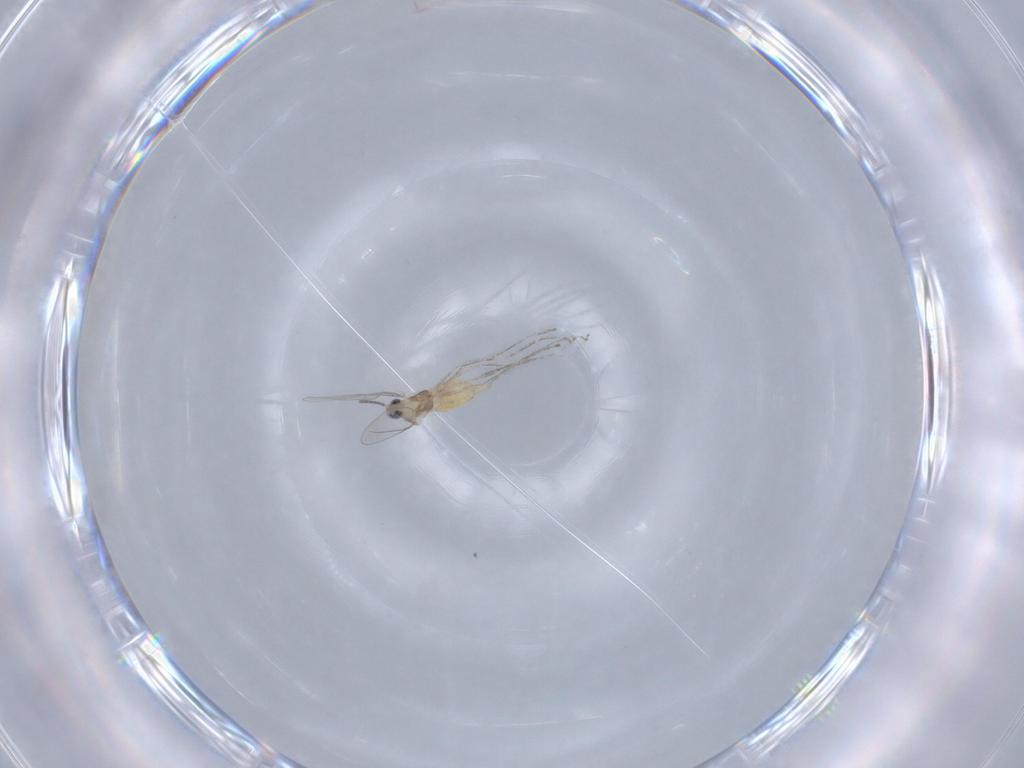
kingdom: Animalia
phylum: Arthropoda
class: Insecta
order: Diptera
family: Cecidomyiidae
